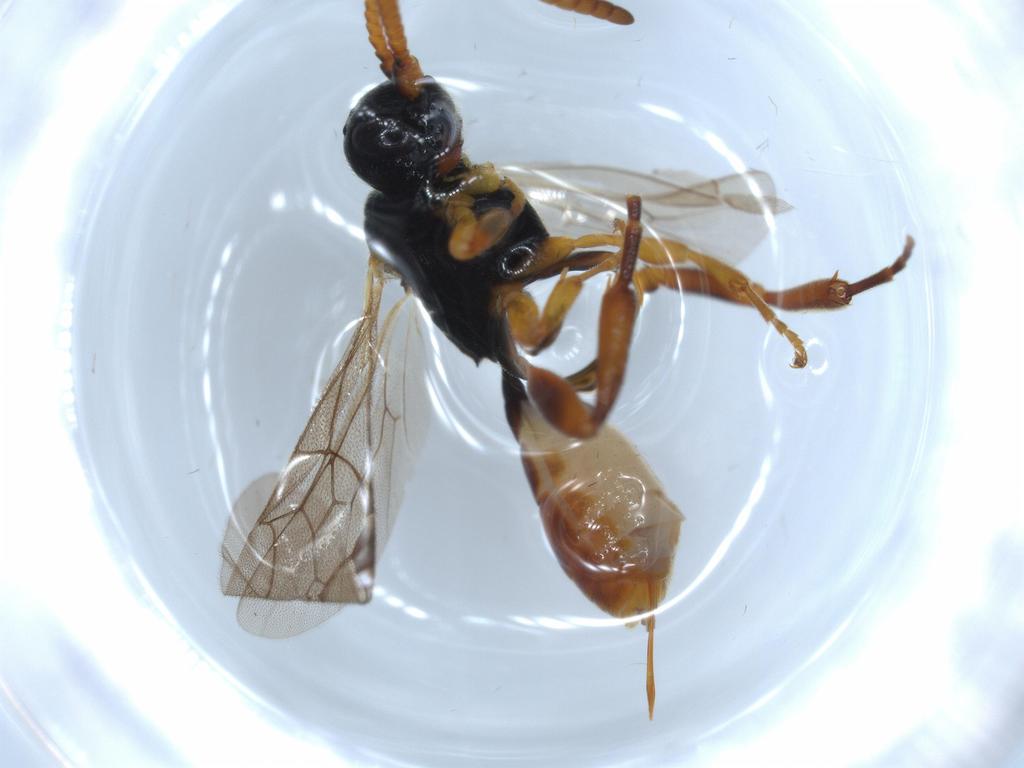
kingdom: Animalia
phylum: Arthropoda
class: Insecta
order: Hymenoptera
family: Ichneumonidae
